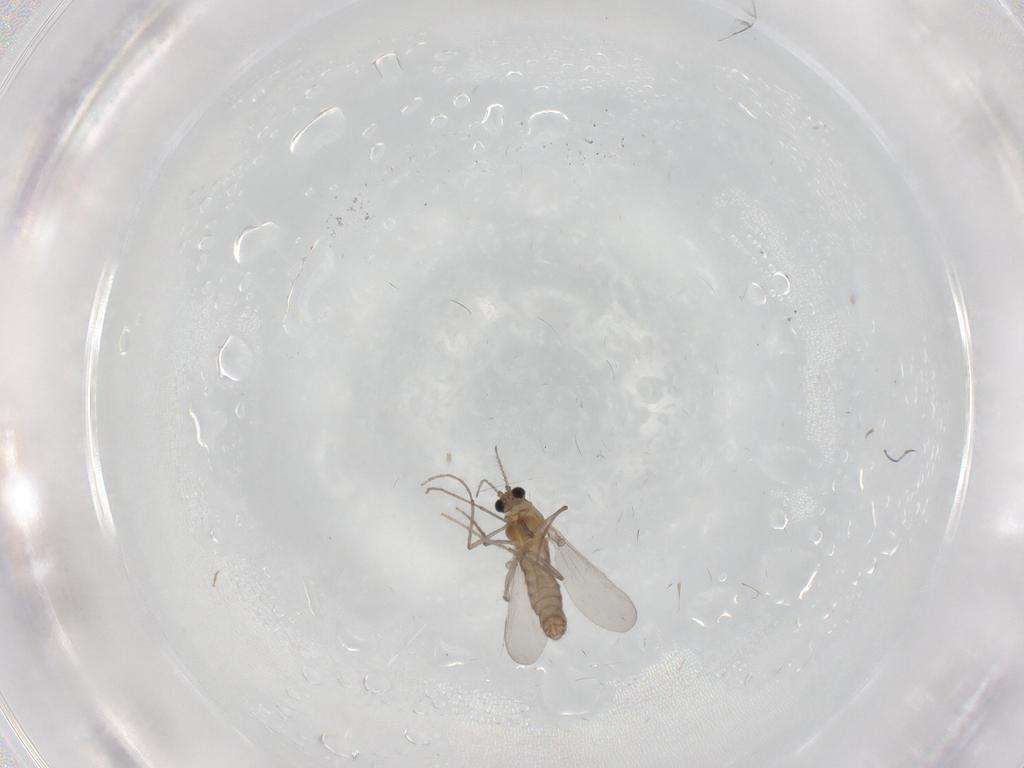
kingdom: Animalia
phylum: Arthropoda
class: Insecta
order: Diptera
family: Chironomidae
